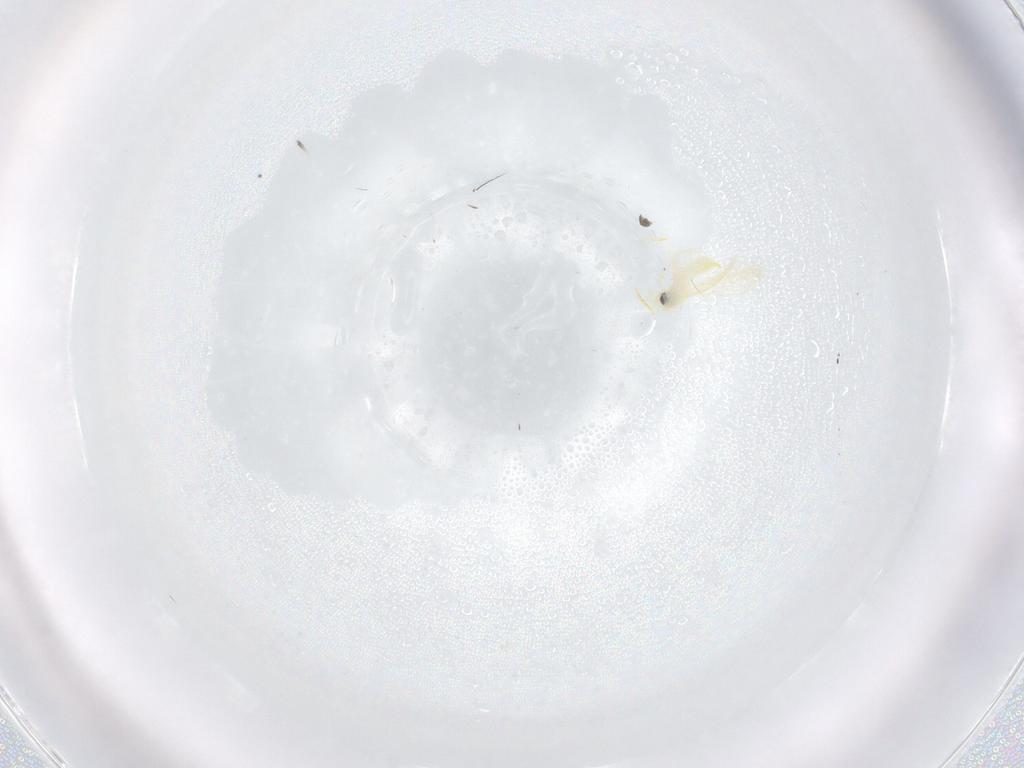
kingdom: Animalia
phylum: Arthropoda
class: Insecta
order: Hemiptera
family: Aleyrodidae
